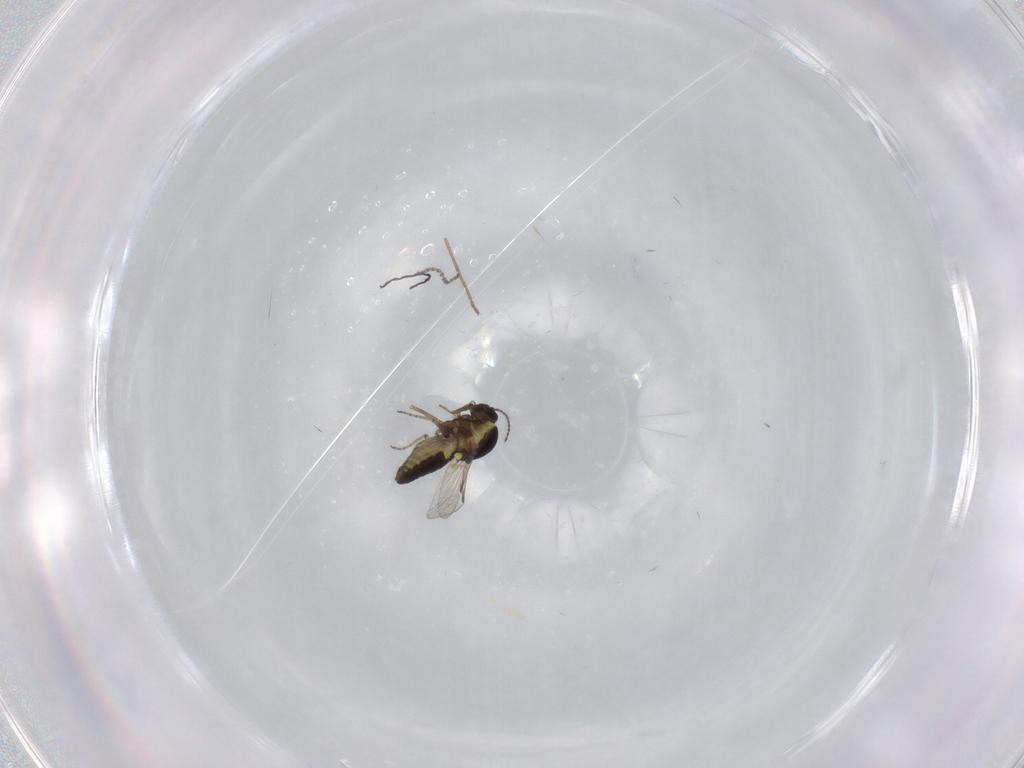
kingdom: Animalia
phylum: Arthropoda
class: Insecta
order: Diptera
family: Cecidomyiidae
